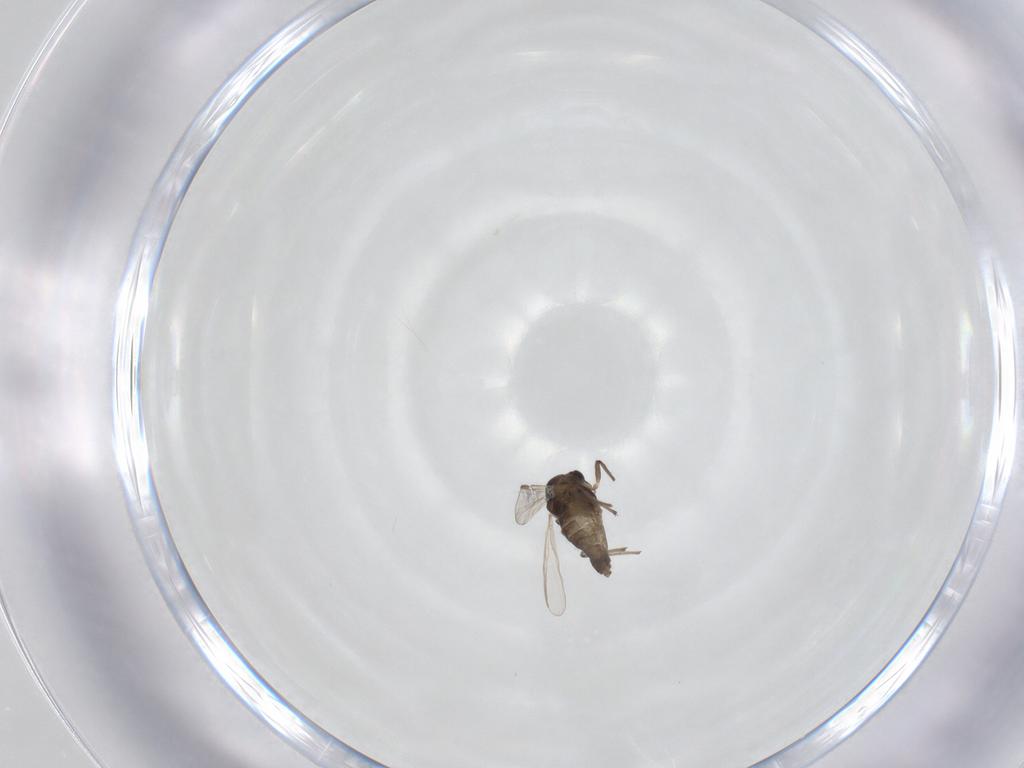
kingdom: Animalia
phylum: Arthropoda
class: Insecta
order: Diptera
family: Chironomidae
